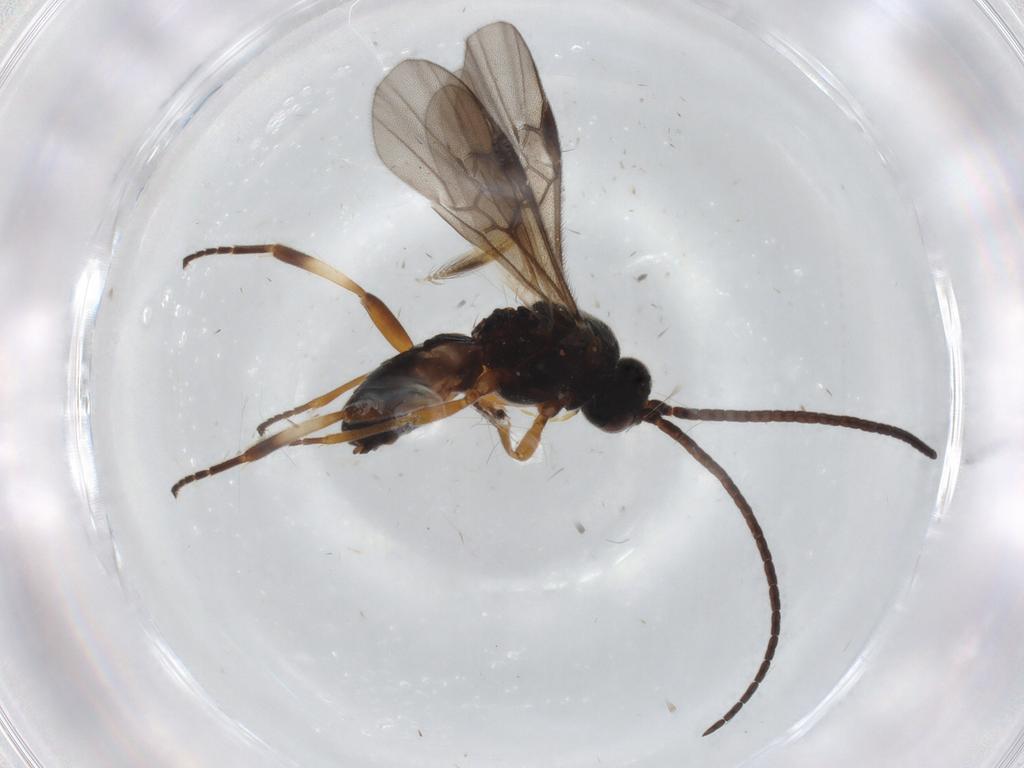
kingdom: Animalia
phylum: Arthropoda
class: Insecta
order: Hymenoptera
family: Braconidae
